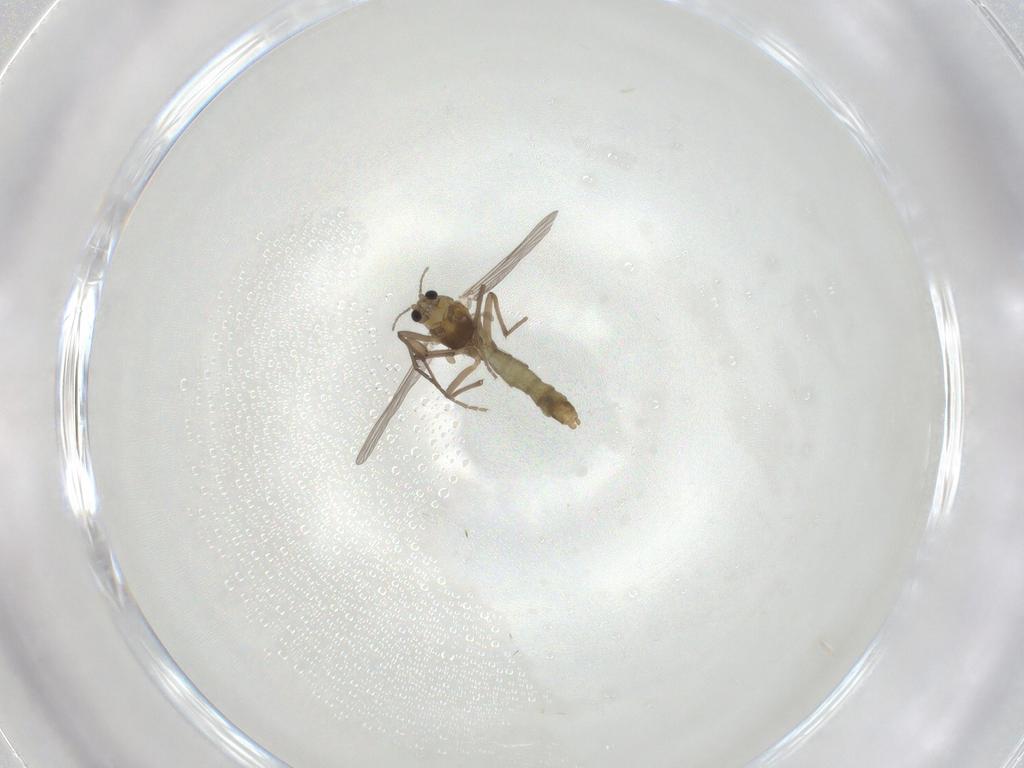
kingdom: Animalia
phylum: Arthropoda
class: Insecta
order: Diptera
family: Chironomidae
